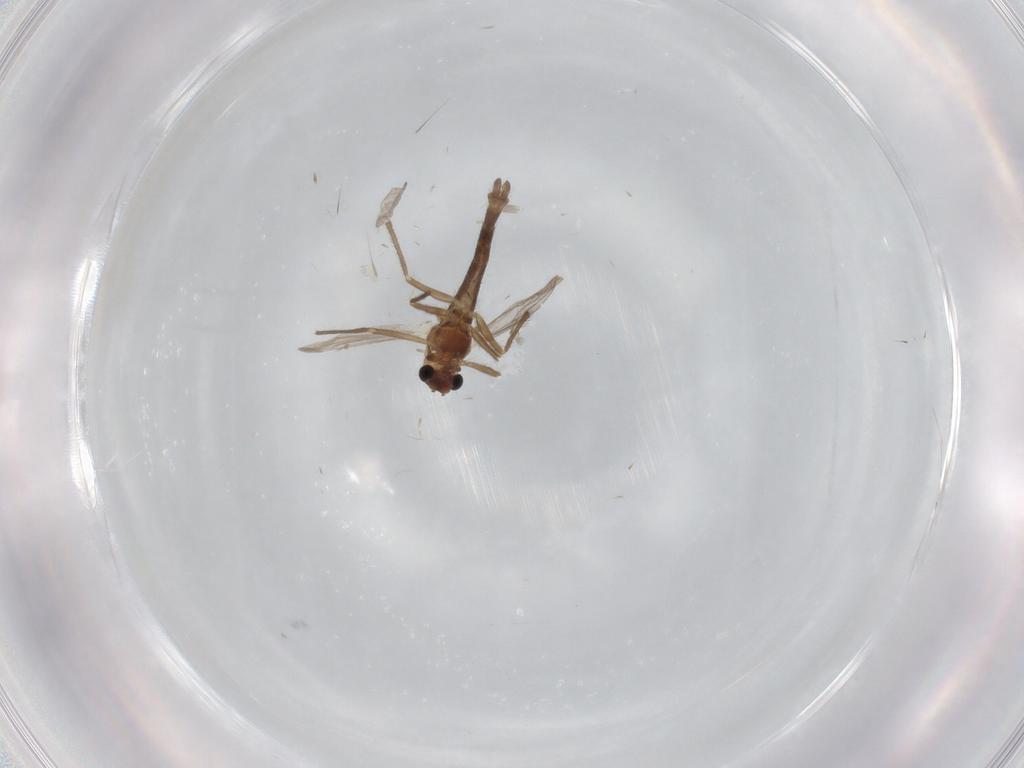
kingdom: Animalia
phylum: Arthropoda
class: Insecta
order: Diptera
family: Chironomidae
